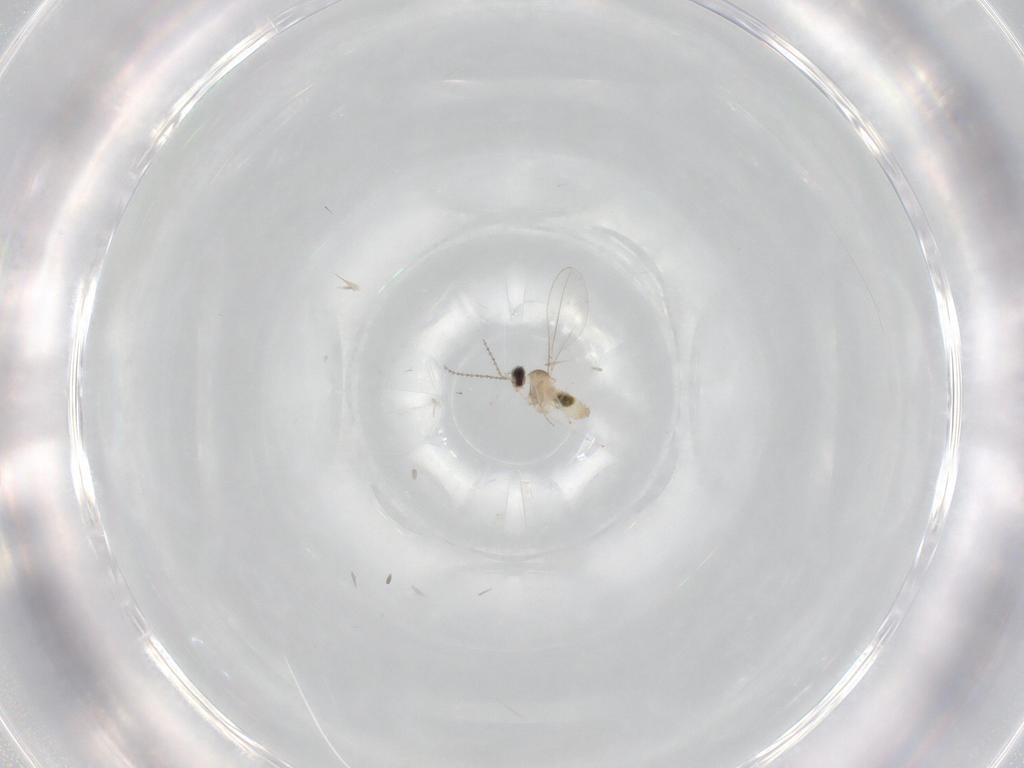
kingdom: Animalia
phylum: Arthropoda
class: Insecta
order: Diptera
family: Cecidomyiidae
